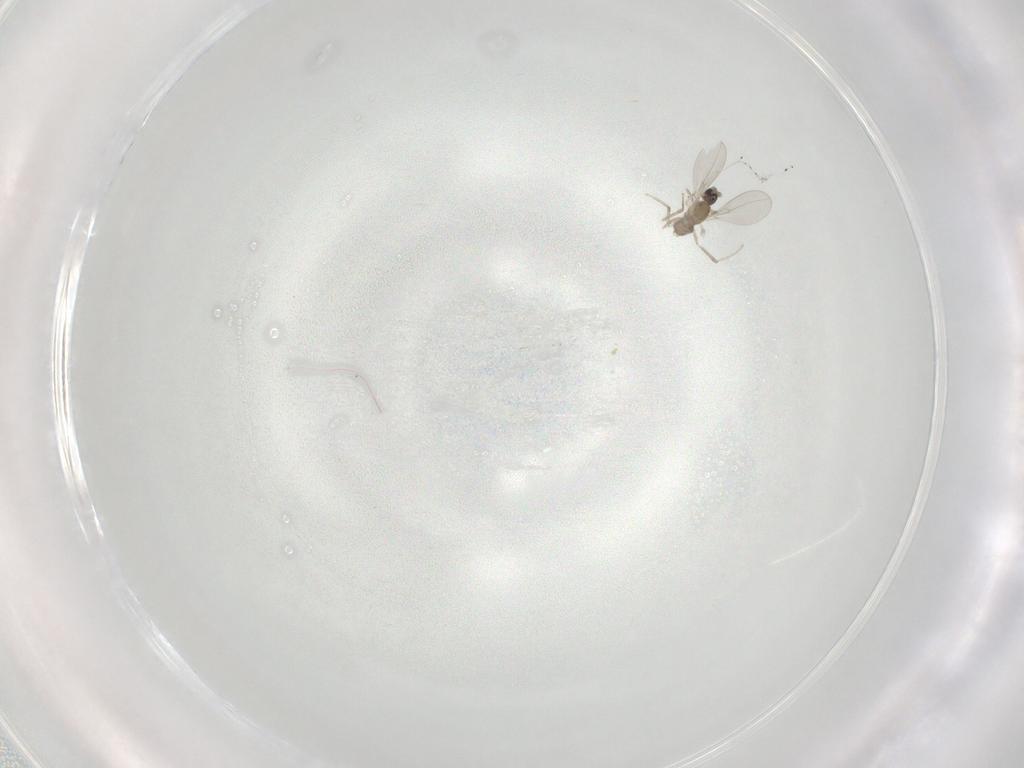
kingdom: Animalia
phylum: Arthropoda
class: Insecta
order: Diptera
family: Cecidomyiidae
